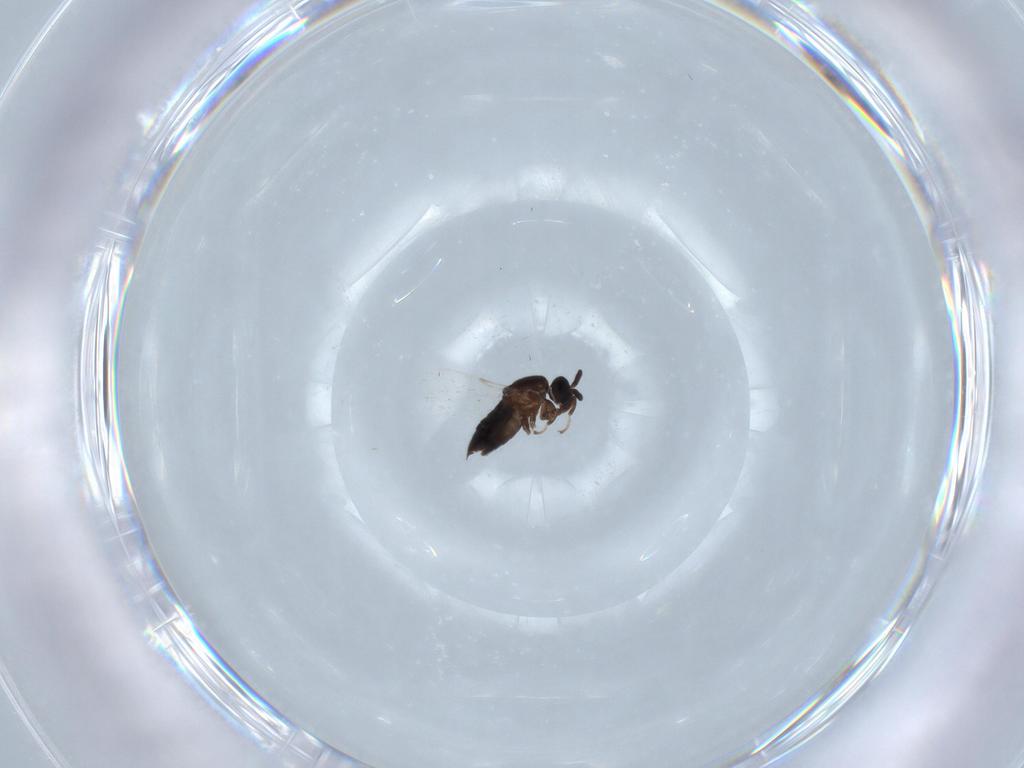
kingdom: Animalia
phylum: Arthropoda
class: Insecta
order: Diptera
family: Scatopsidae
